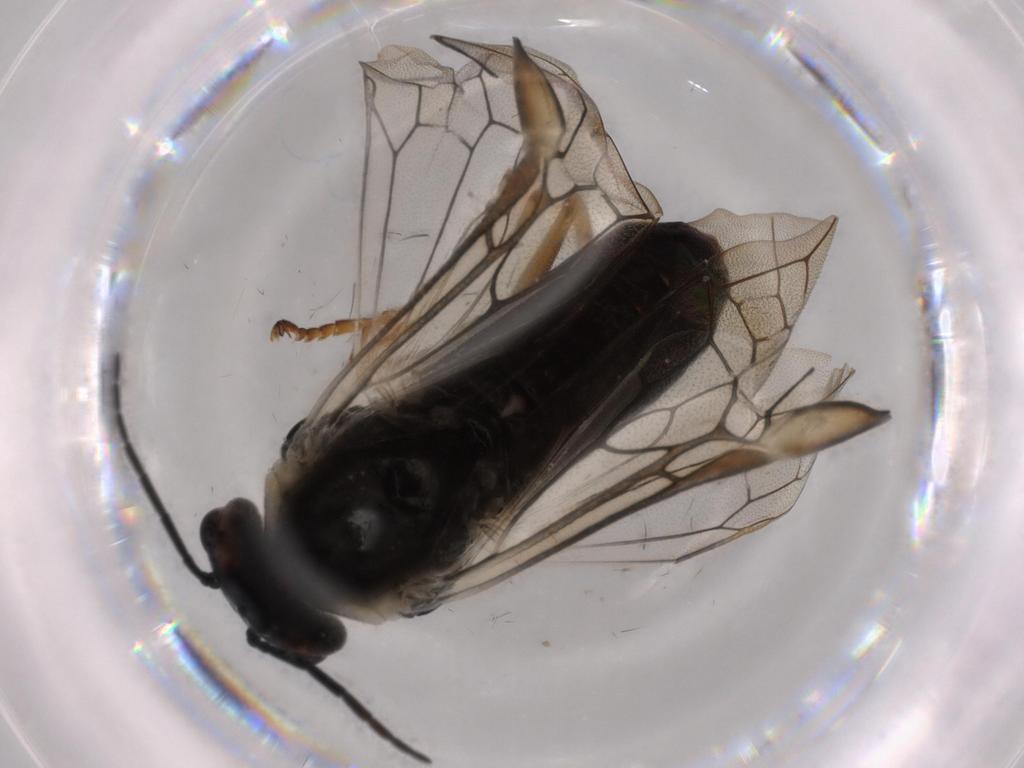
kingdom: Animalia
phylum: Arthropoda
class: Insecta
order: Hymenoptera
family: Tenthredinidae
